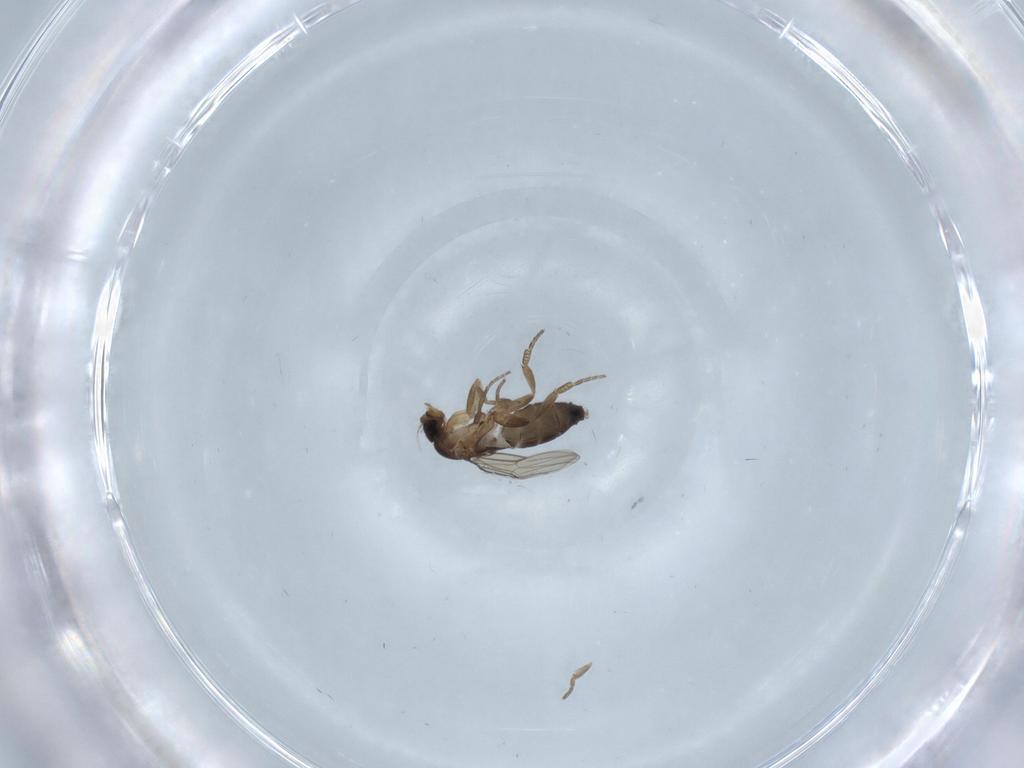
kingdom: Animalia
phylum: Arthropoda
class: Insecta
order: Diptera
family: Phoridae
